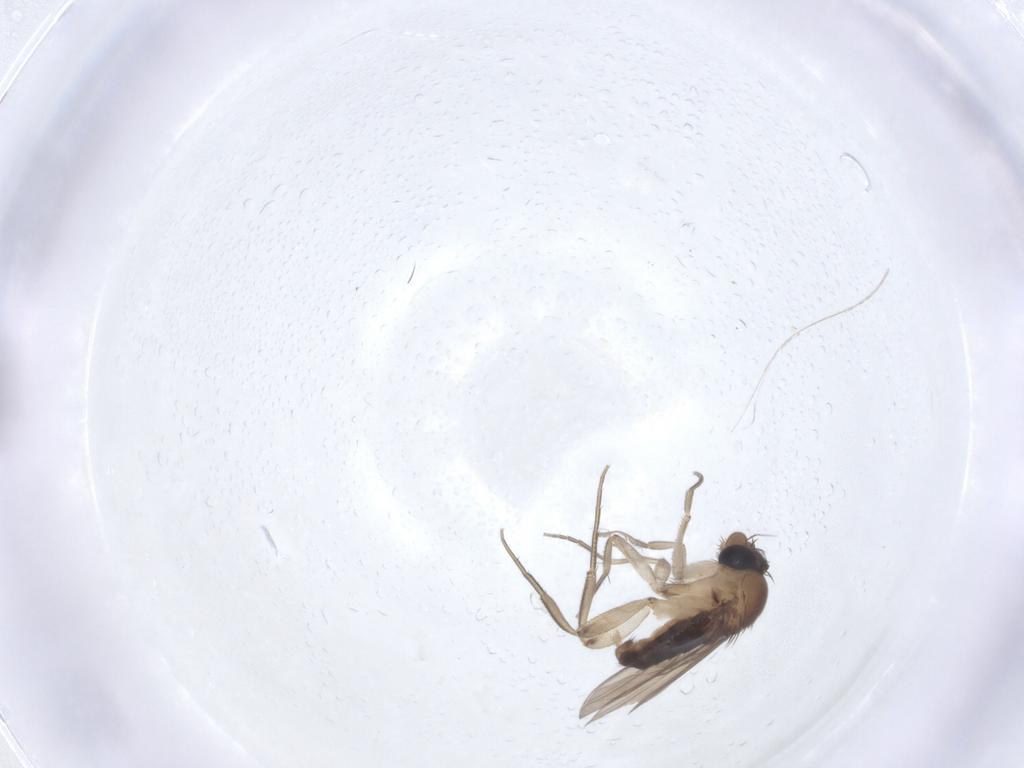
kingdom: Animalia
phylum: Arthropoda
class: Insecta
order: Diptera
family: Phoridae
